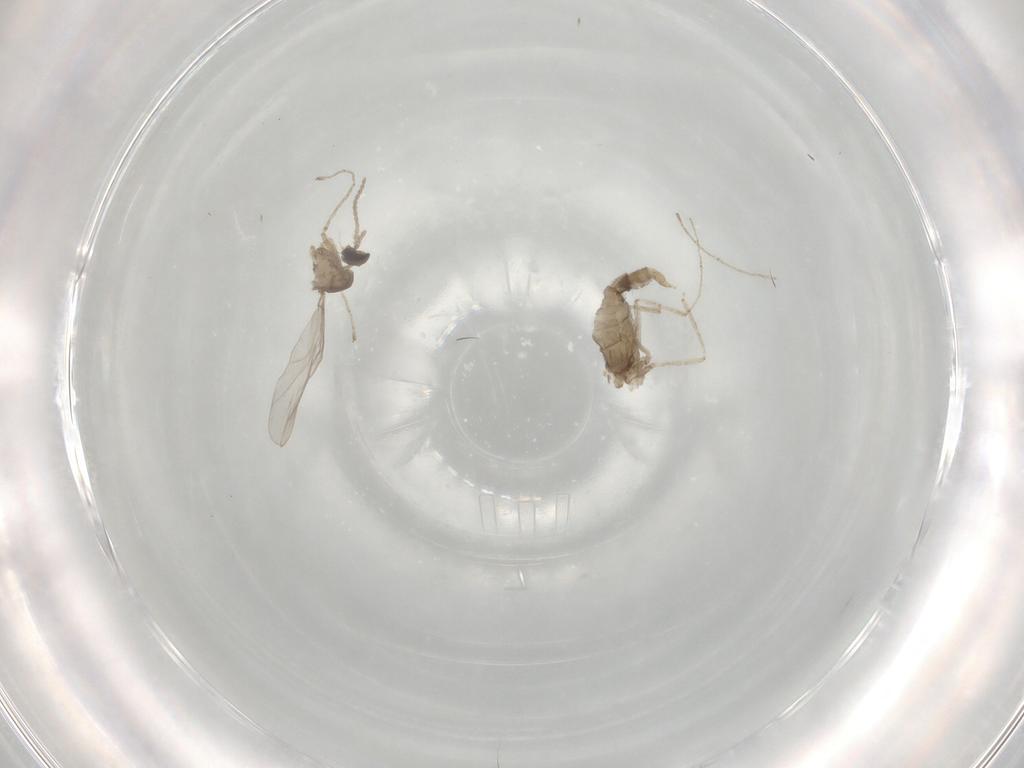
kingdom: Animalia
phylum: Arthropoda
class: Insecta
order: Diptera
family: Cecidomyiidae
